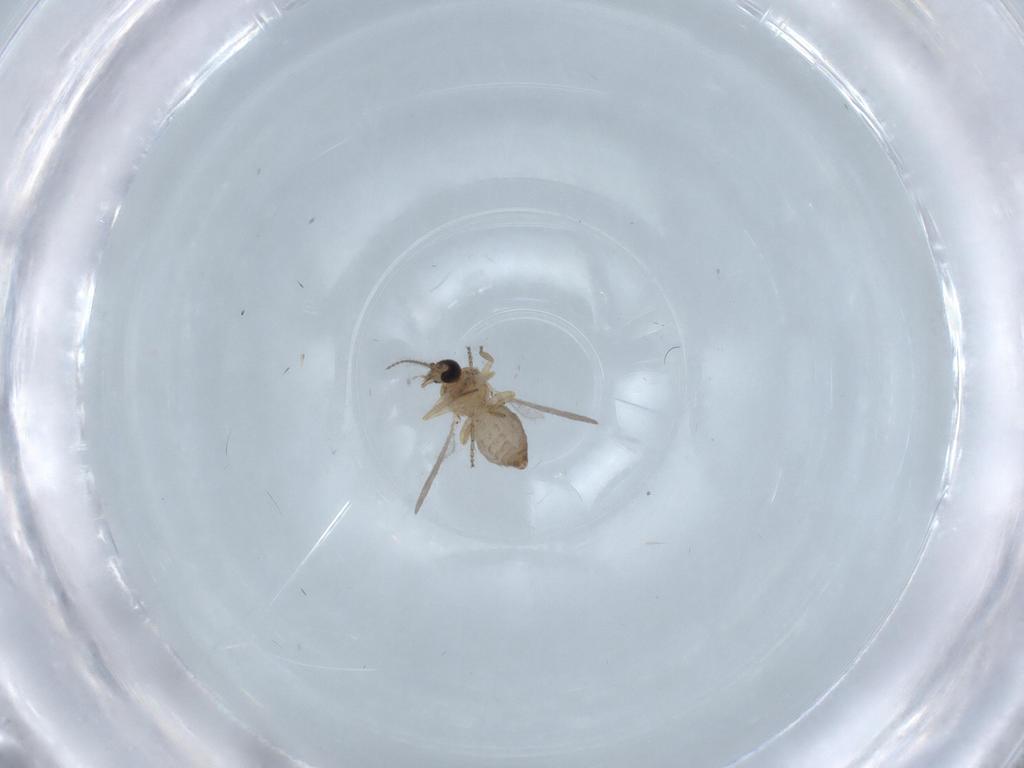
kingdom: Animalia
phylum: Arthropoda
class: Insecta
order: Diptera
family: Ceratopogonidae
